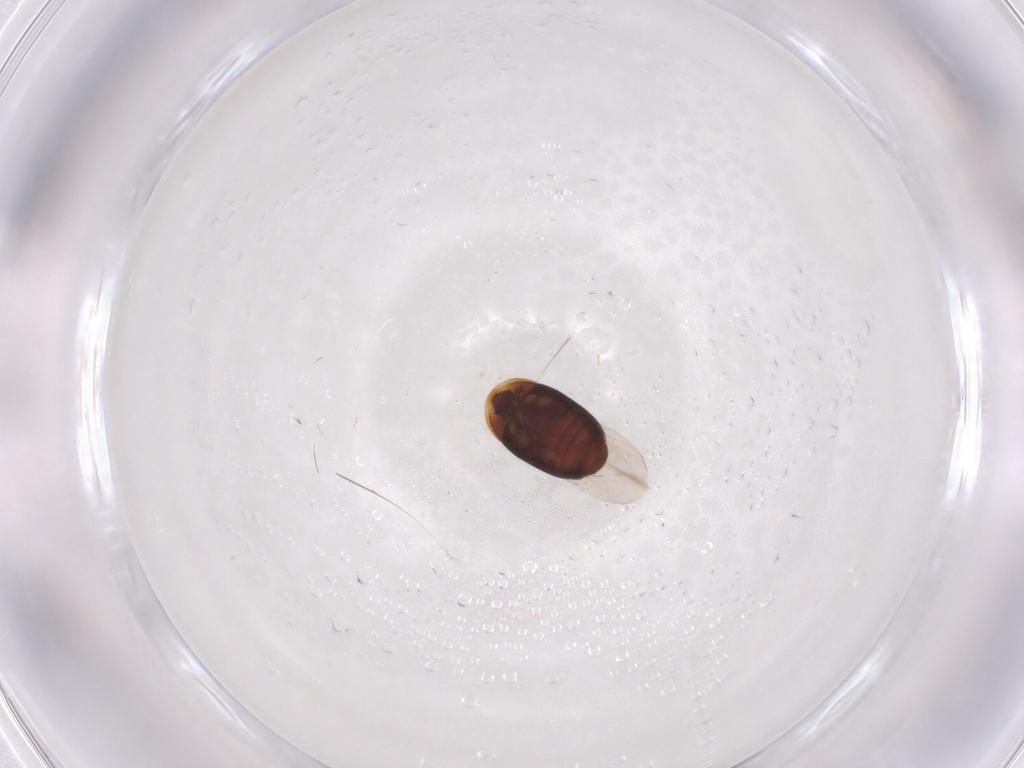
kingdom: Animalia
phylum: Arthropoda
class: Insecta
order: Coleoptera
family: Corylophidae
